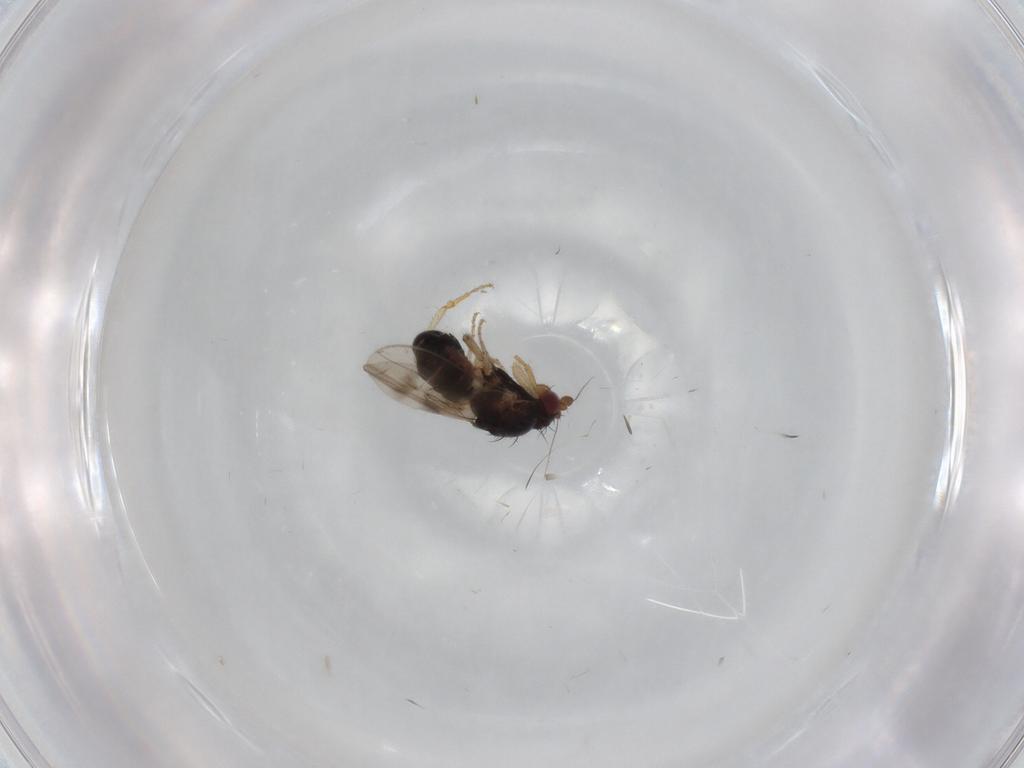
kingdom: Animalia
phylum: Arthropoda
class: Insecta
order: Diptera
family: Sphaeroceridae
